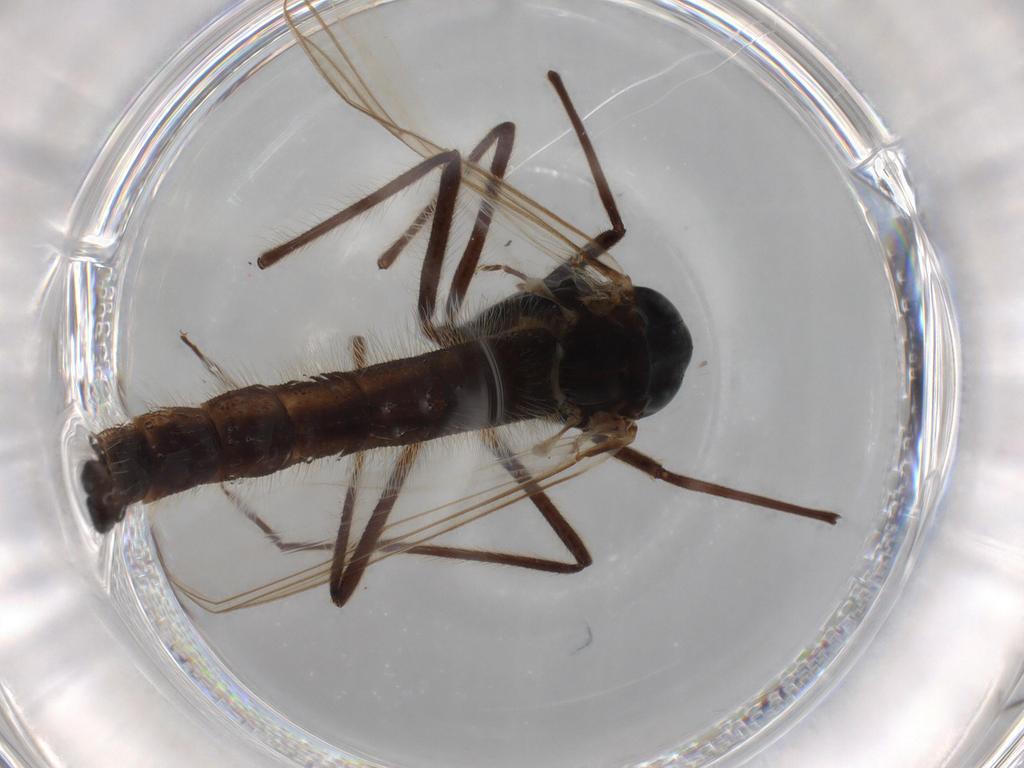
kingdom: Animalia
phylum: Arthropoda
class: Insecta
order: Diptera
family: Chironomidae
